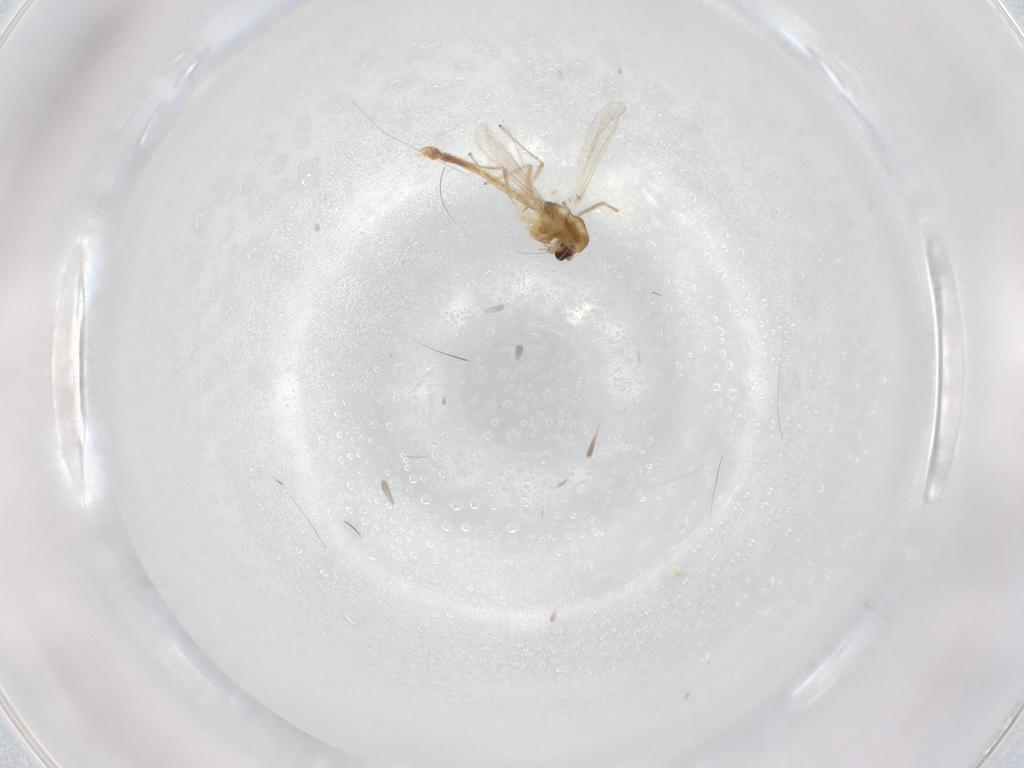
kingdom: Animalia
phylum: Arthropoda
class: Insecta
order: Diptera
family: Chironomidae
